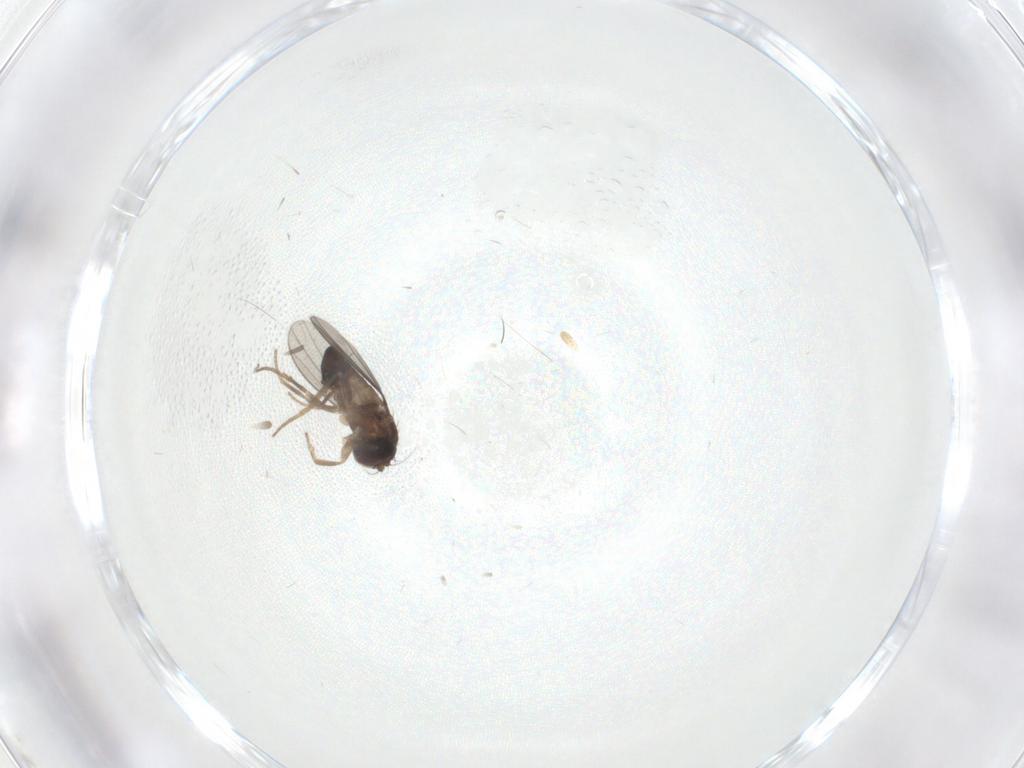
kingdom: Animalia
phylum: Arthropoda
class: Insecta
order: Diptera
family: Dolichopodidae
